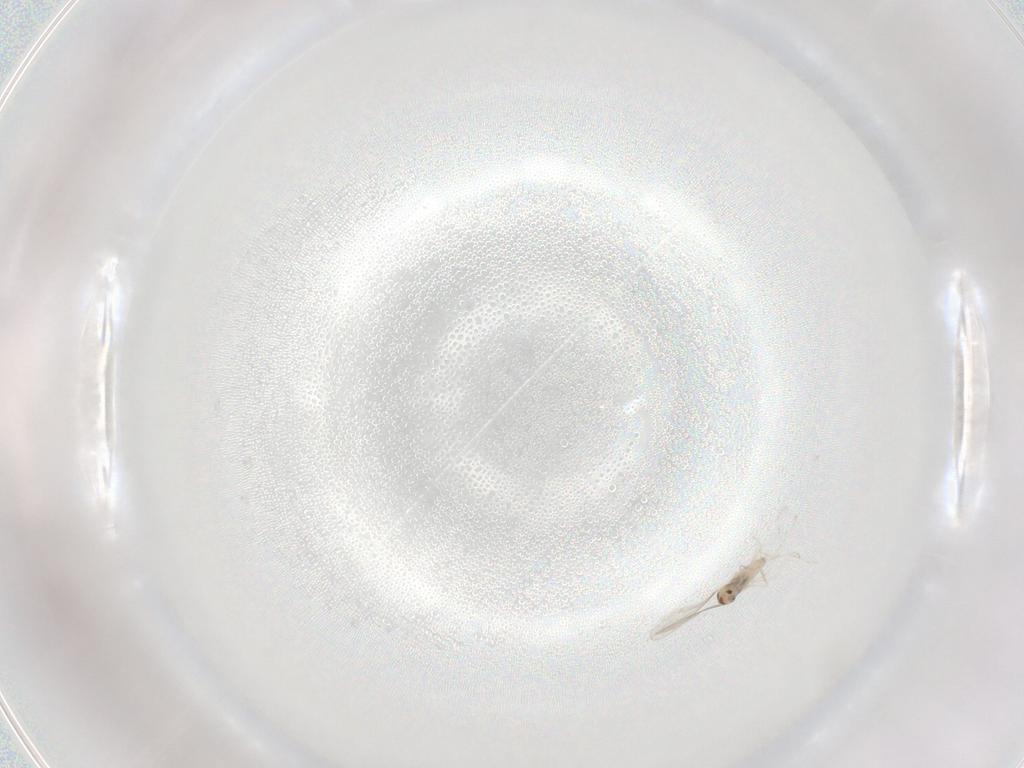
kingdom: Animalia
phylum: Arthropoda
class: Insecta
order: Diptera
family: Cecidomyiidae
